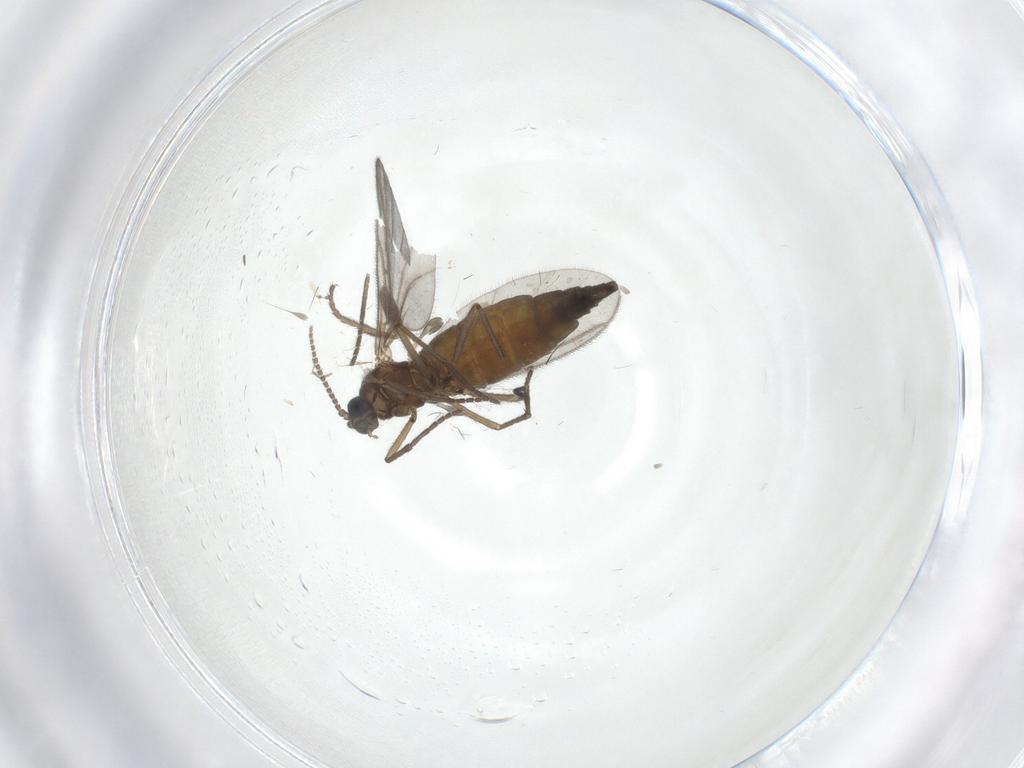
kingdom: Animalia
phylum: Arthropoda
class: Insecta
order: Diptera
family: Sciaridae
